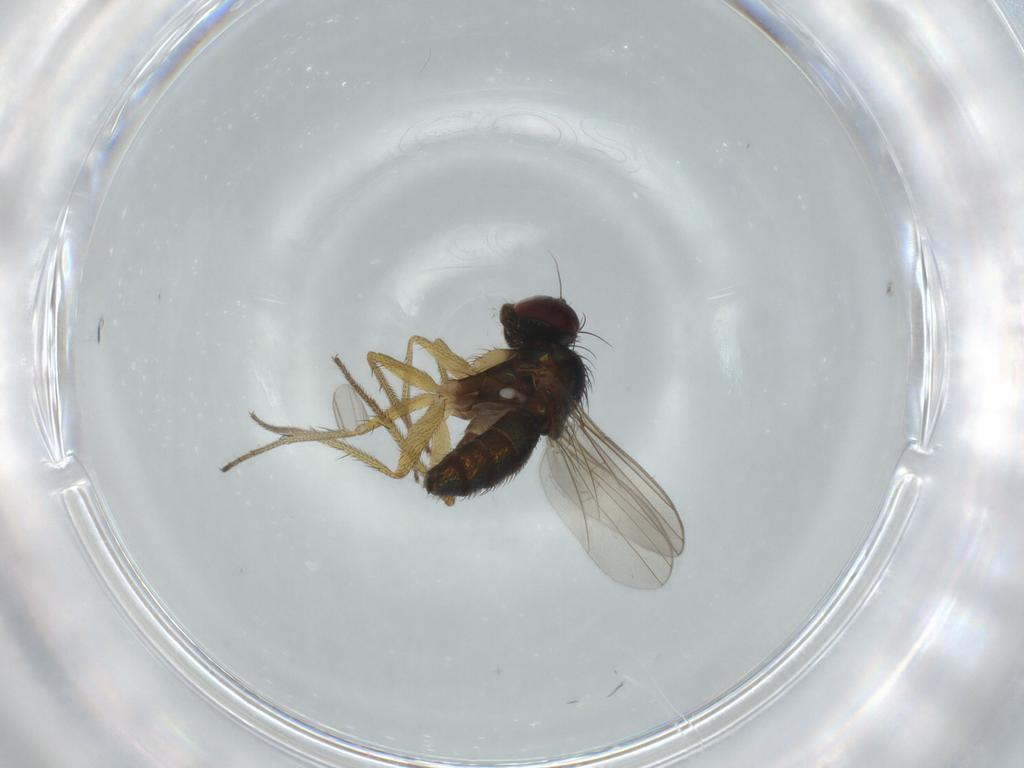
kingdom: Animalia
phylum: Arthropoda
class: Insecta
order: Diptera
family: Dolichopodidae
